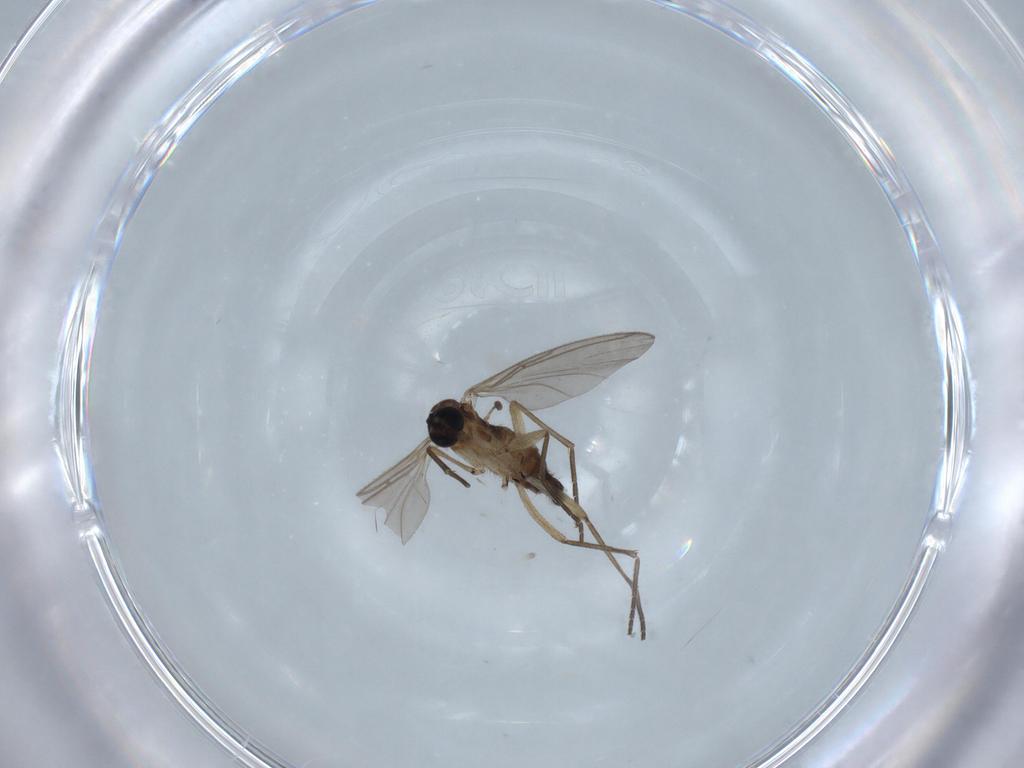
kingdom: Animalia
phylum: Arthropoda
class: Insecta
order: Diptera
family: Sciaridae
